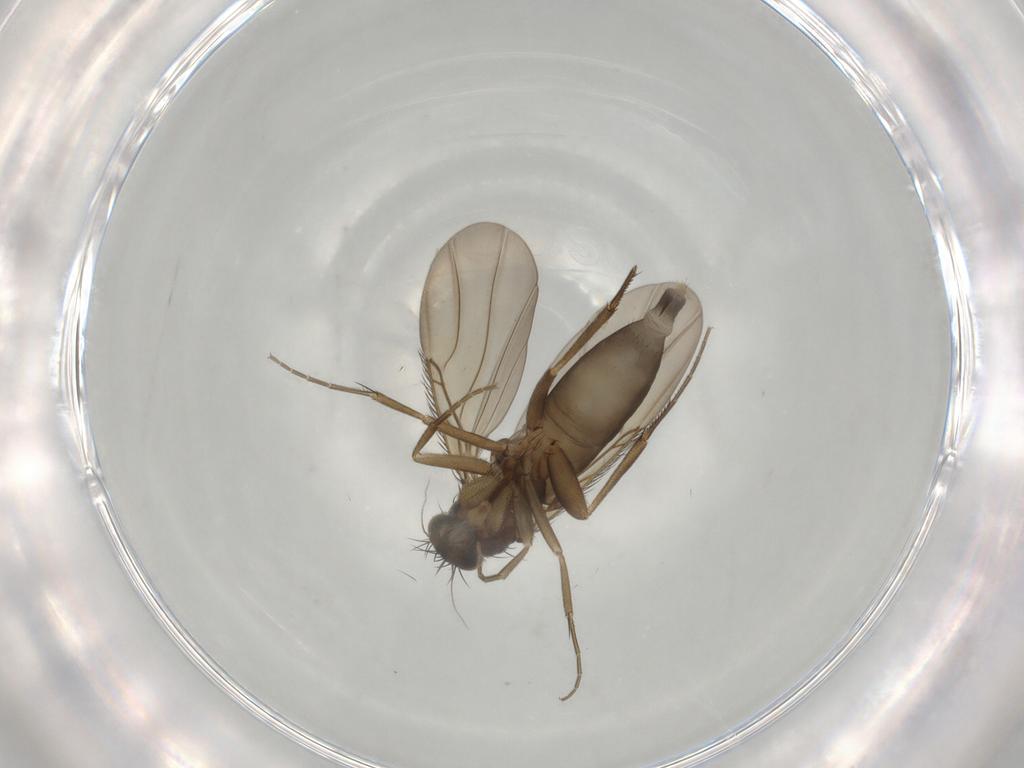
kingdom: Animalia
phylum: Arthropoda
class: Insecta
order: Diptera
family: Phoridae
